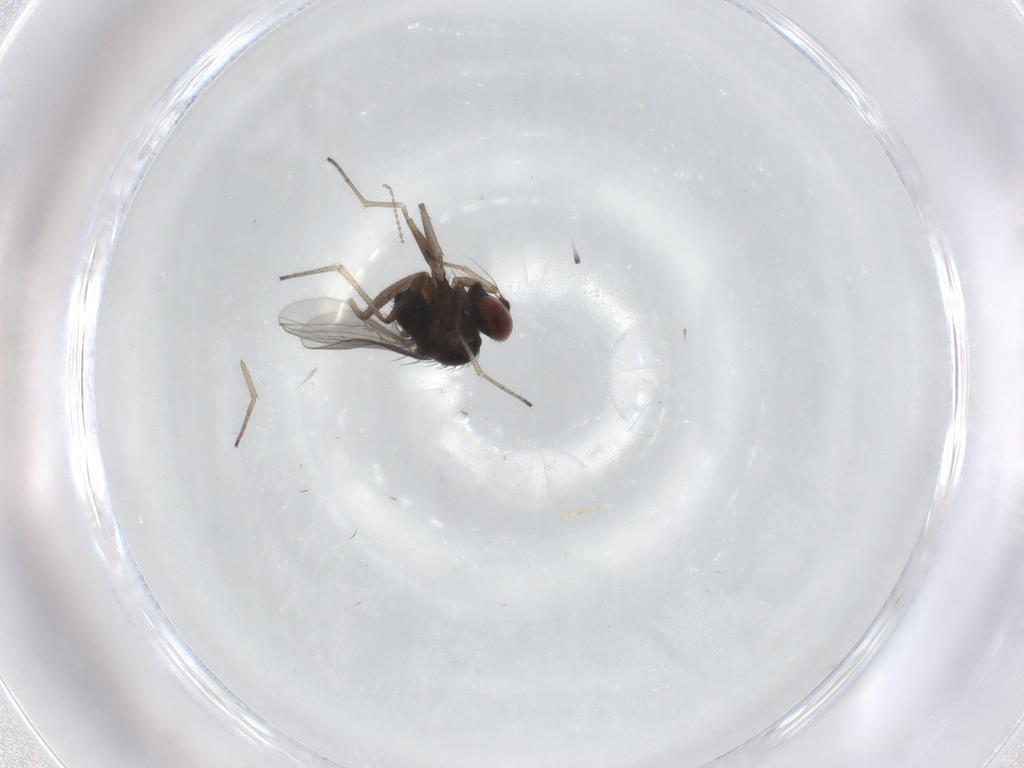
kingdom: Animalia
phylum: Arthropoda
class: Insecta
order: Diptera
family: Dolichopodidae
